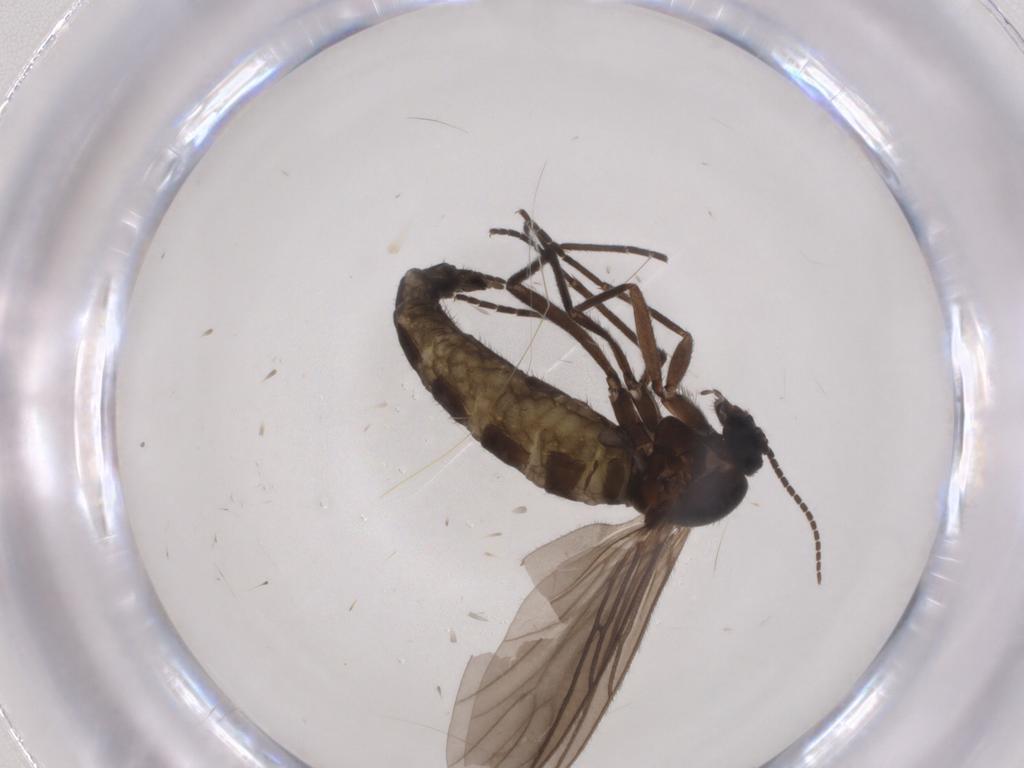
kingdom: Animalia
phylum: Arthropoda
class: Insecta
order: Diptera
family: Sciaridae
